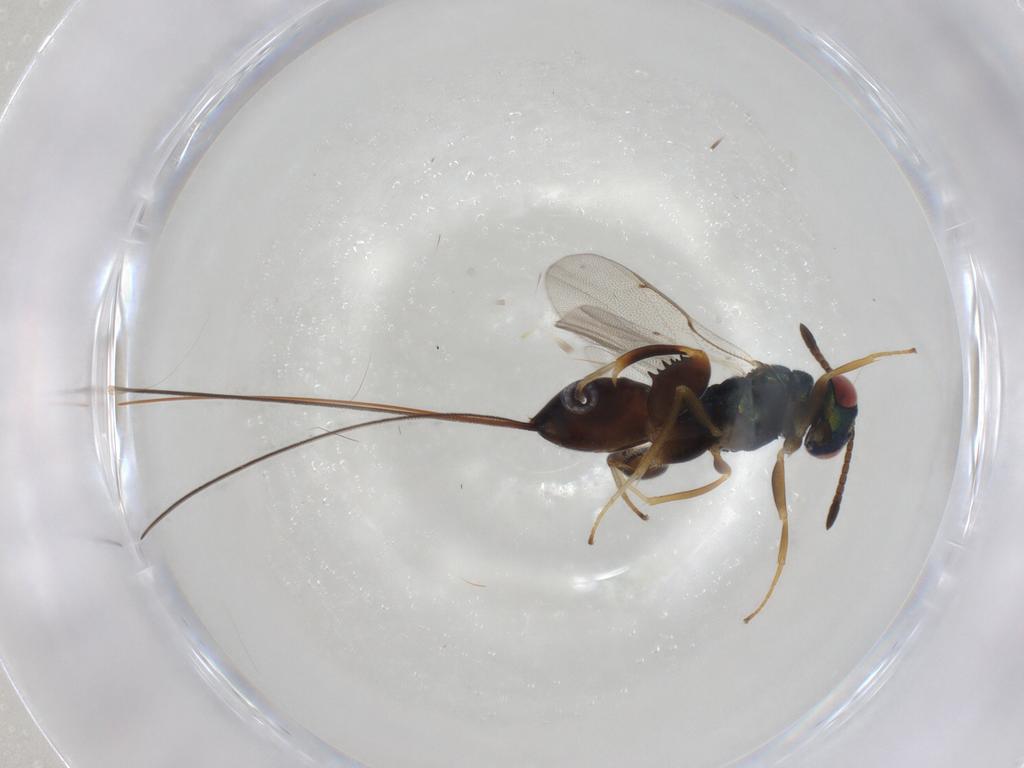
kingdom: Animalia
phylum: Arthropoda
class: Insecta
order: Hymenoptera
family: Torymidae
